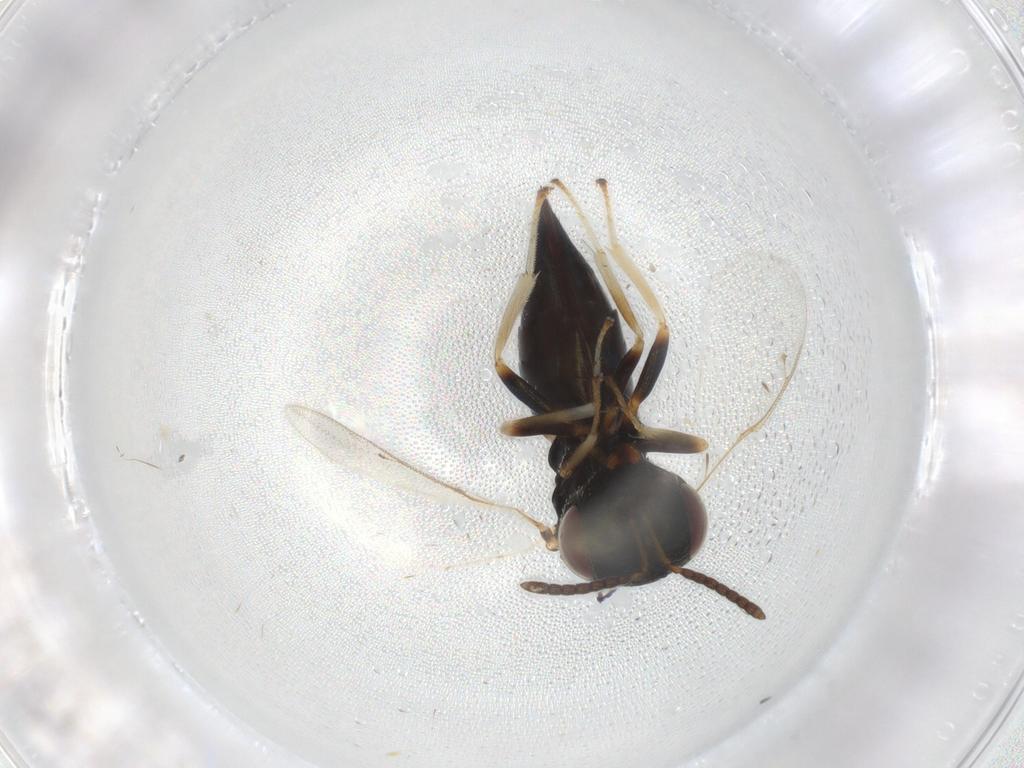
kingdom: Animalia
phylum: Arthropoda
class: Insecta
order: Hymenoptera
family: Pteromalidae
